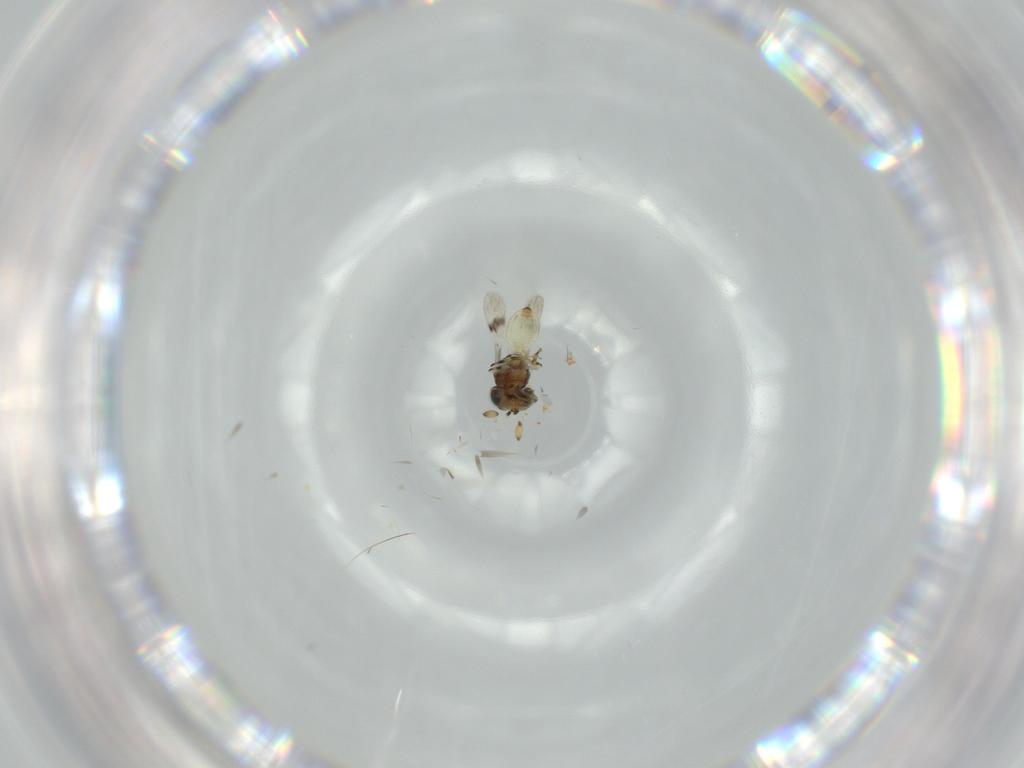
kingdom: Animalia
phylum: Arthropoda
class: Insecta
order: Hymenoptera
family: Scelionidae
